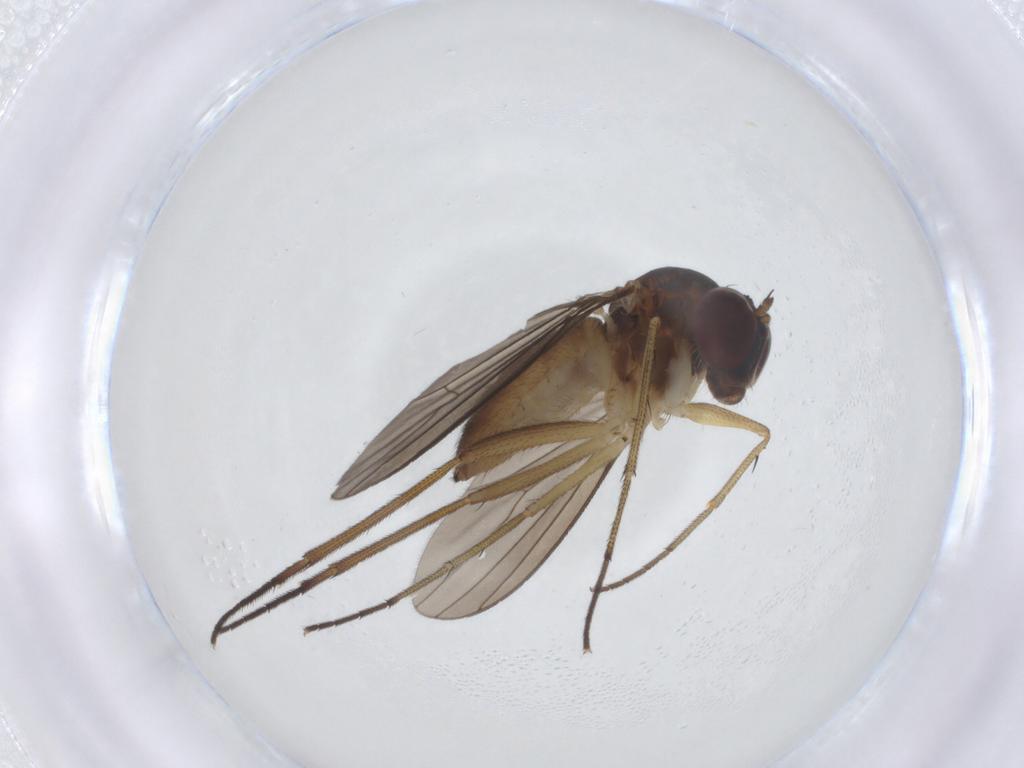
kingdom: Animalia
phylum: Arthropoda
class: Insecta
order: Diptera
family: Dolichopodidae
